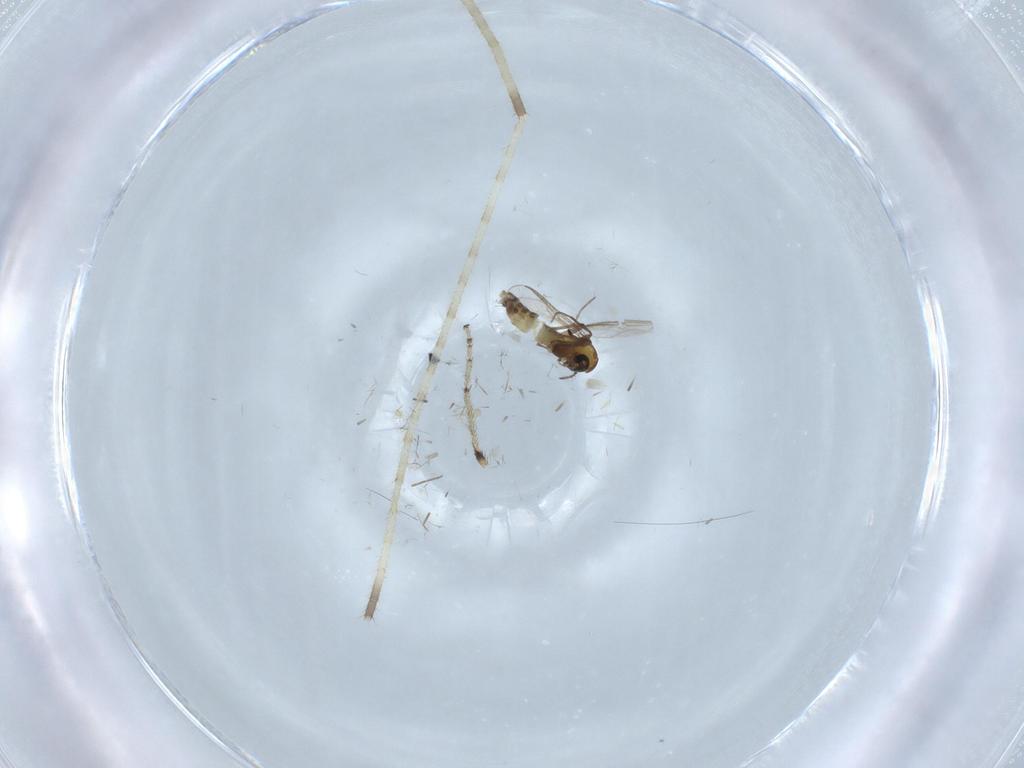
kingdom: Animalia
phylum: Arthropoda
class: Insecta
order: Diptera
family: Chironomidae
